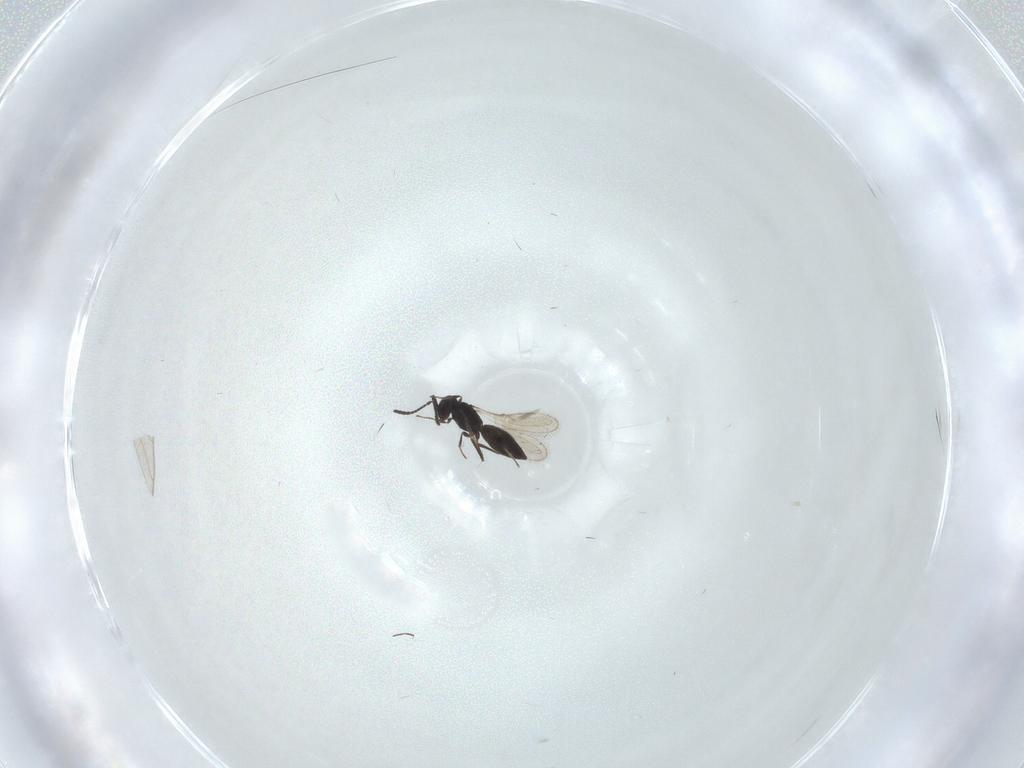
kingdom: Animalia
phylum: Arthropoda
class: Insecta
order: Hymenoptera
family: Scelionidae
